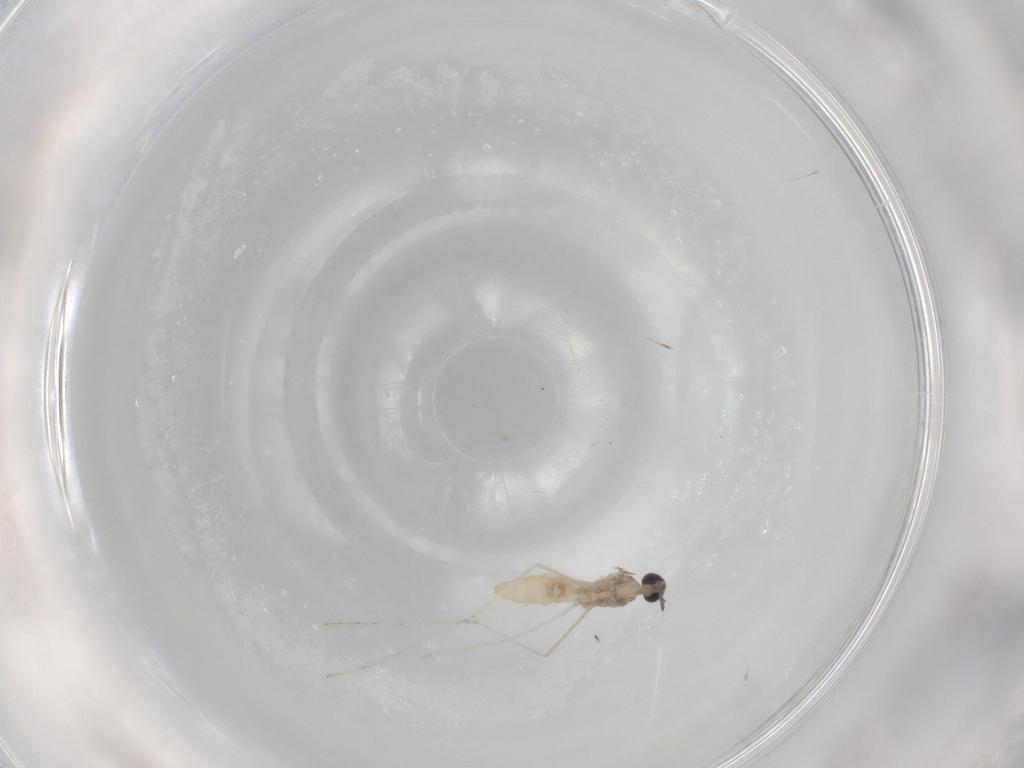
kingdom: Animalia
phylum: Arthropoda
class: Insecta
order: Diptera
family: Cecidomyiidae
